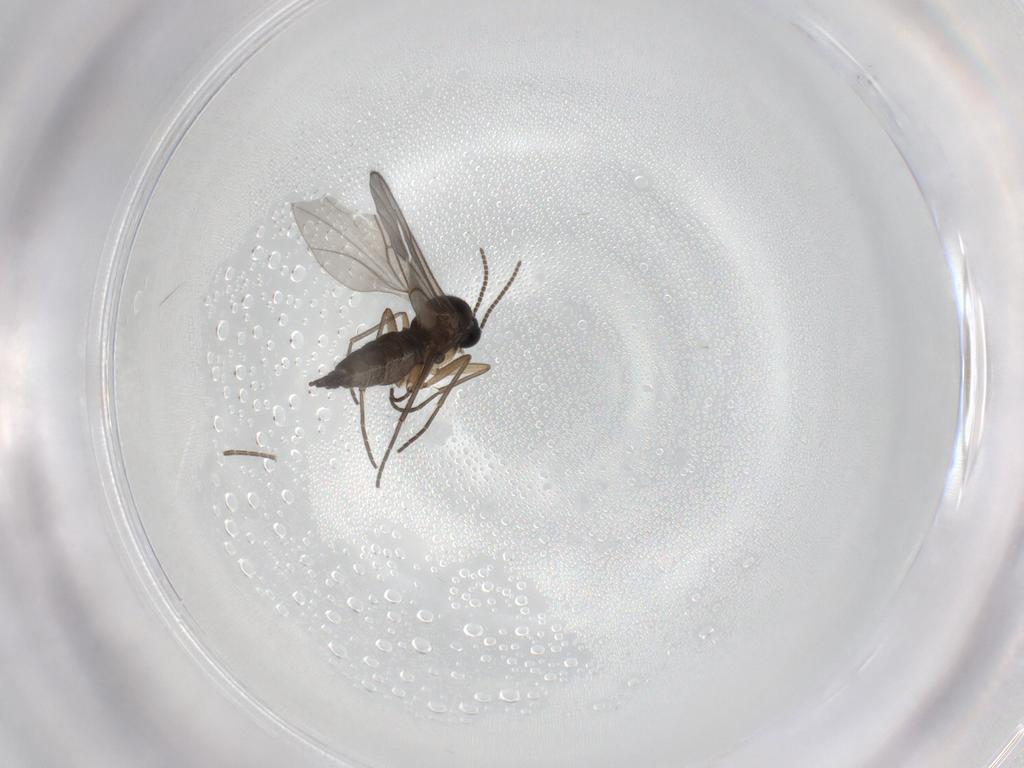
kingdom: Animalia
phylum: Arthropoda
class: Insecta
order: Diptera
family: Sciaridae
